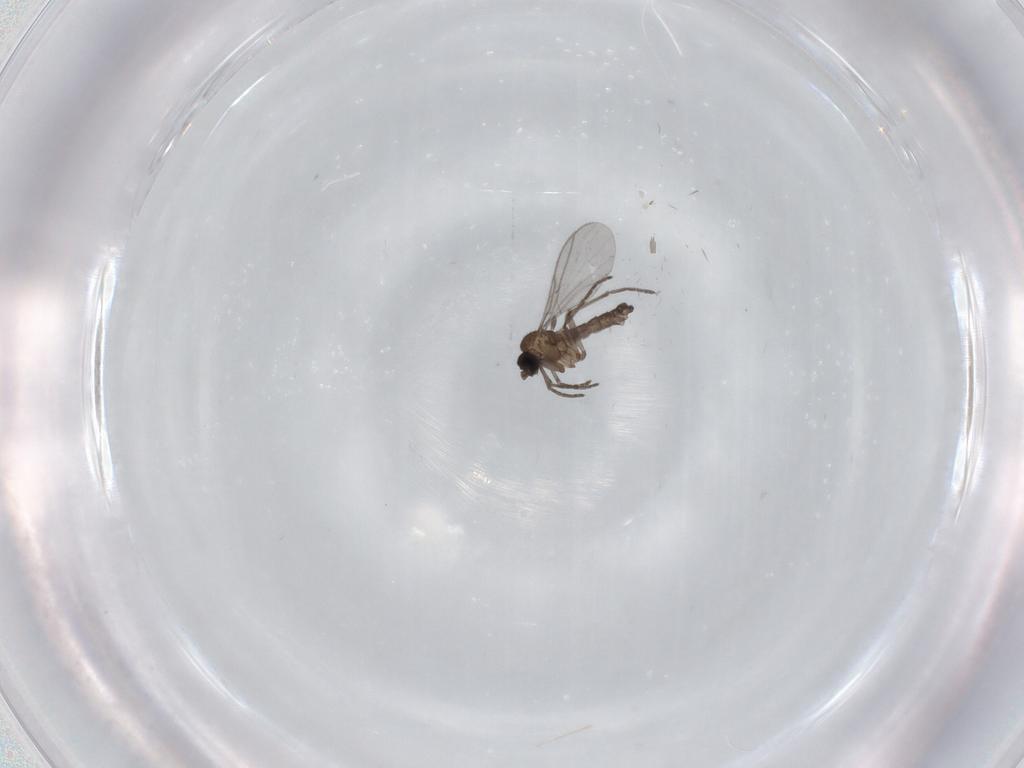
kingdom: Animalia
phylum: Arthropoda
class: Insecta
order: Diptera
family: Sciaridae
